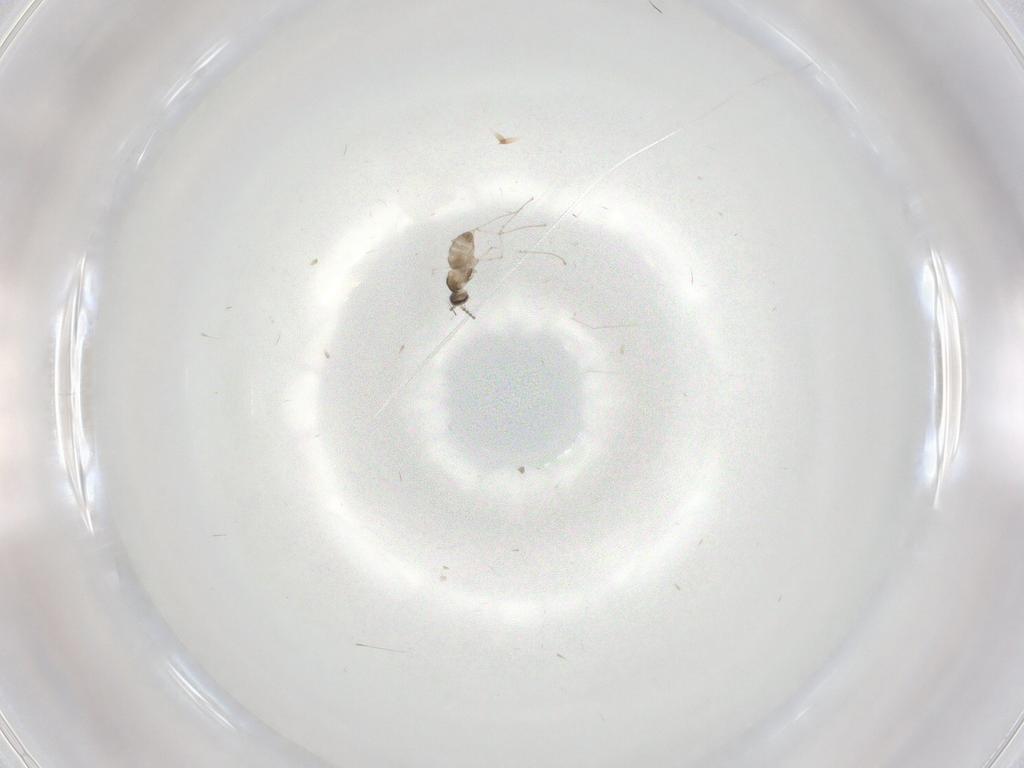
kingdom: Animalia
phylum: Arthropoda
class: Insecta
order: Diptera
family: Cecidomyiidae
